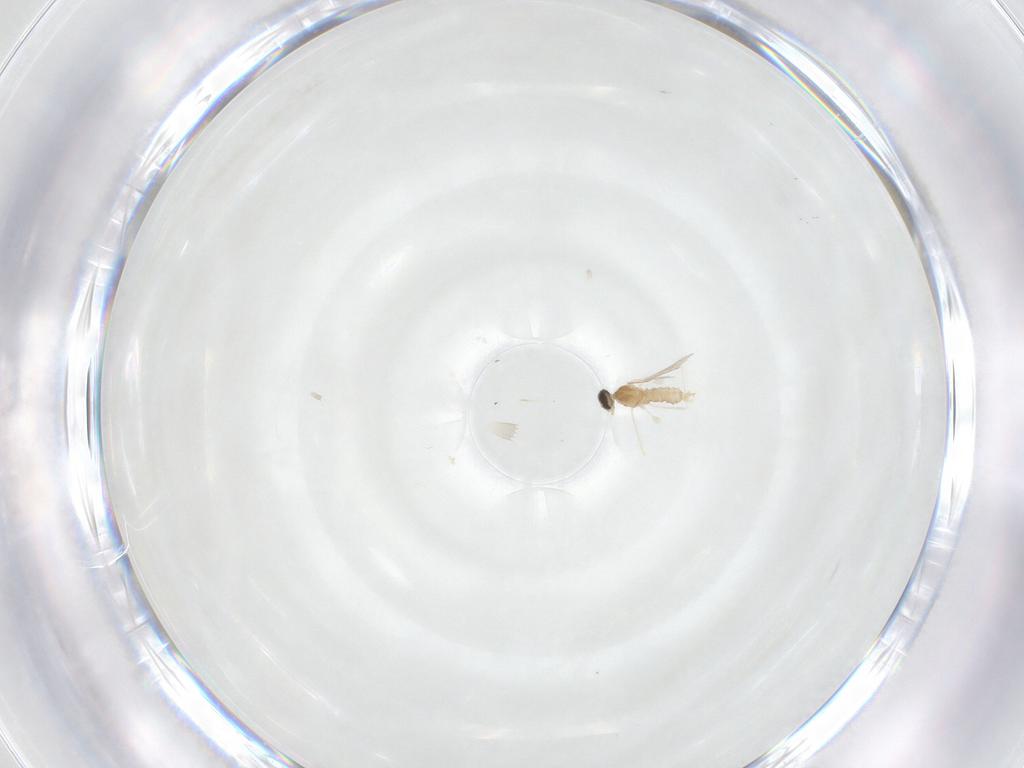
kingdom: Animalia
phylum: Arthropoda
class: Insecta
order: Diptera
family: Cecidomyiidae
